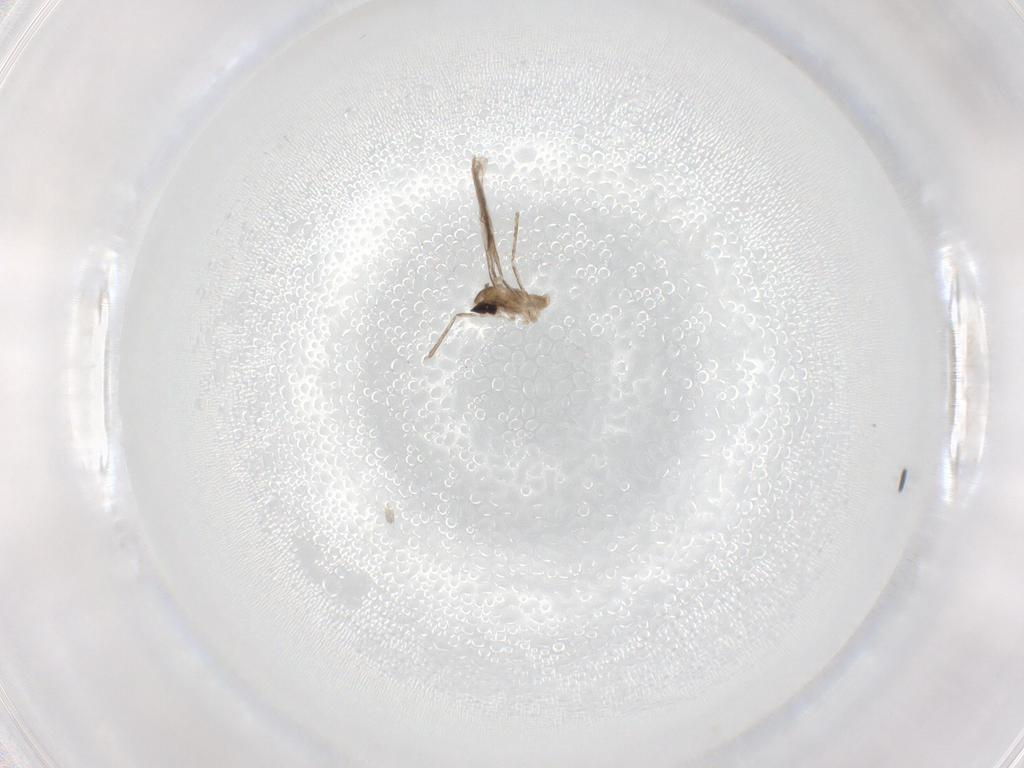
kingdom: Animalia
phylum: Arthropoda
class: Insecta
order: Diptera
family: Cecidomyiidae
